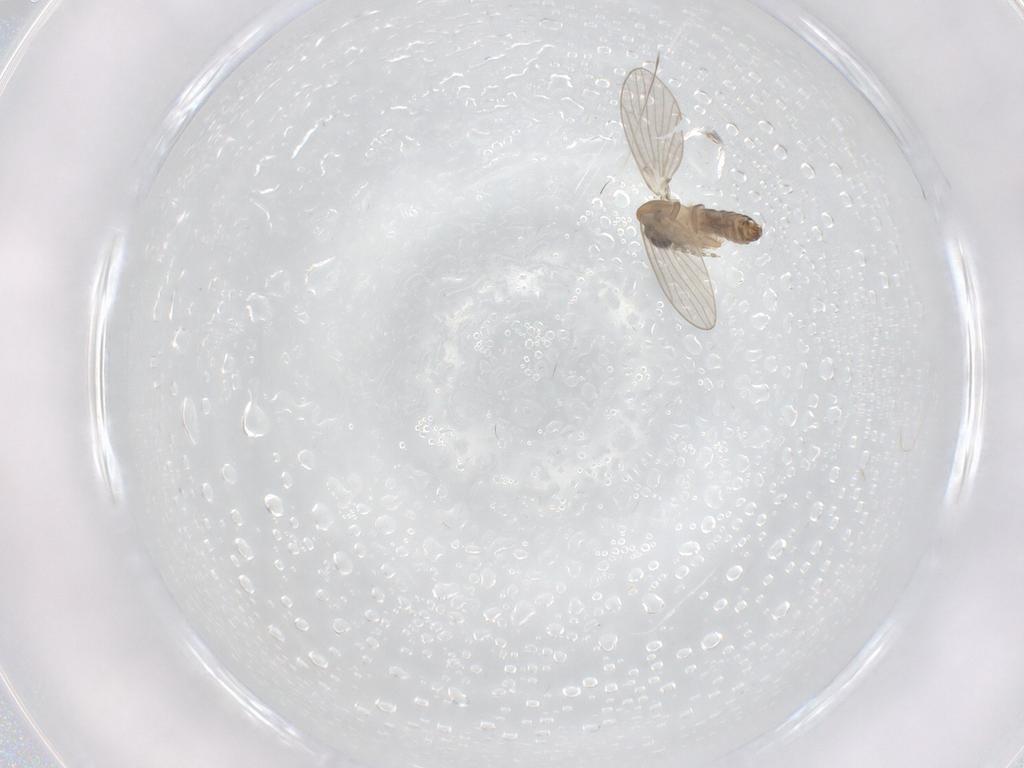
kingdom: Animalia
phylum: Arthropoda
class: Insecta
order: Diptera
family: Psychodidae
